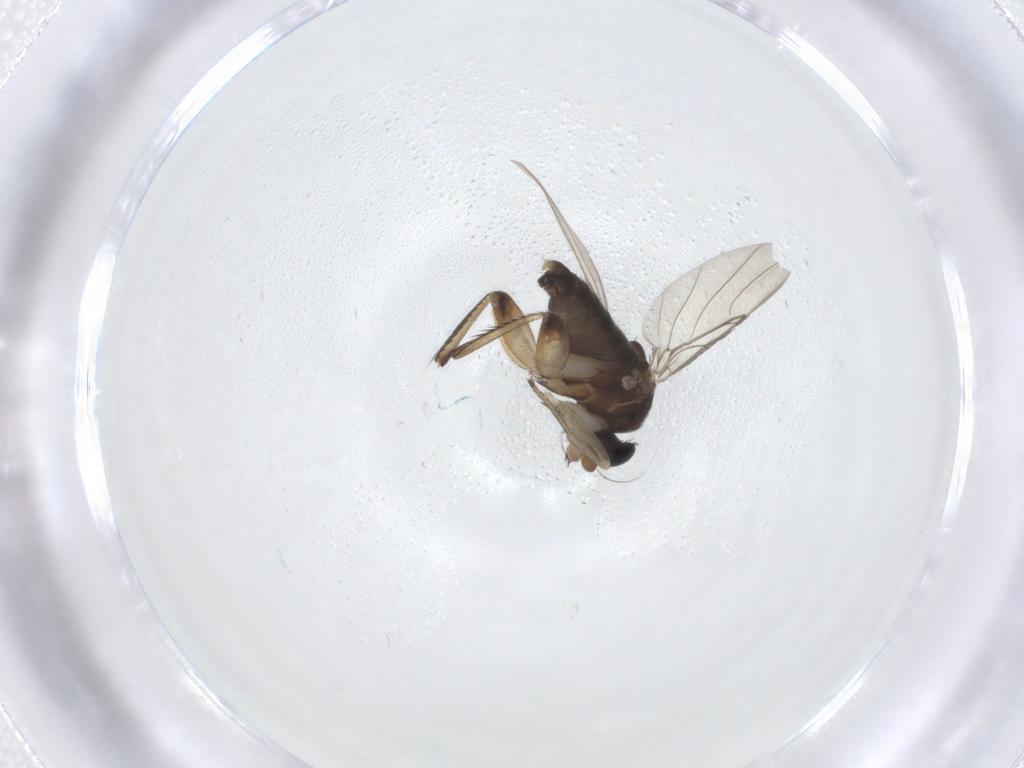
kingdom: Animalia
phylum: Arthropoda
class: Insecta
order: Diptera
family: Phoridae
